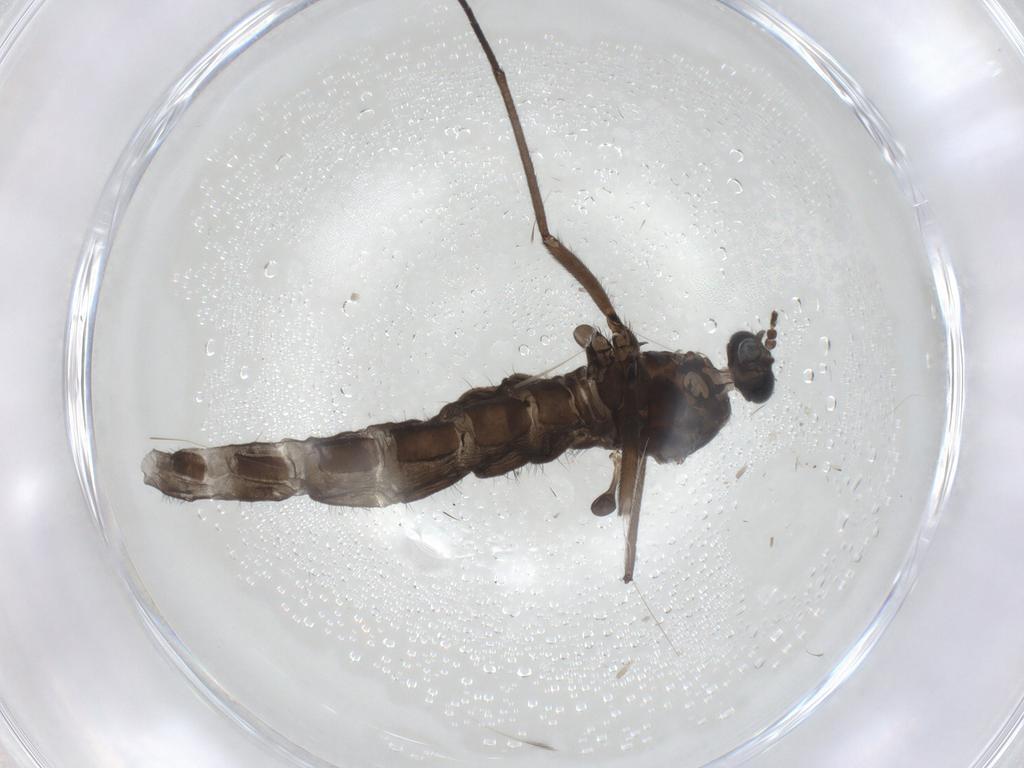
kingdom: Animalia
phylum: Arthropoda
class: Insecta
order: Diptera
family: Sciaridae
